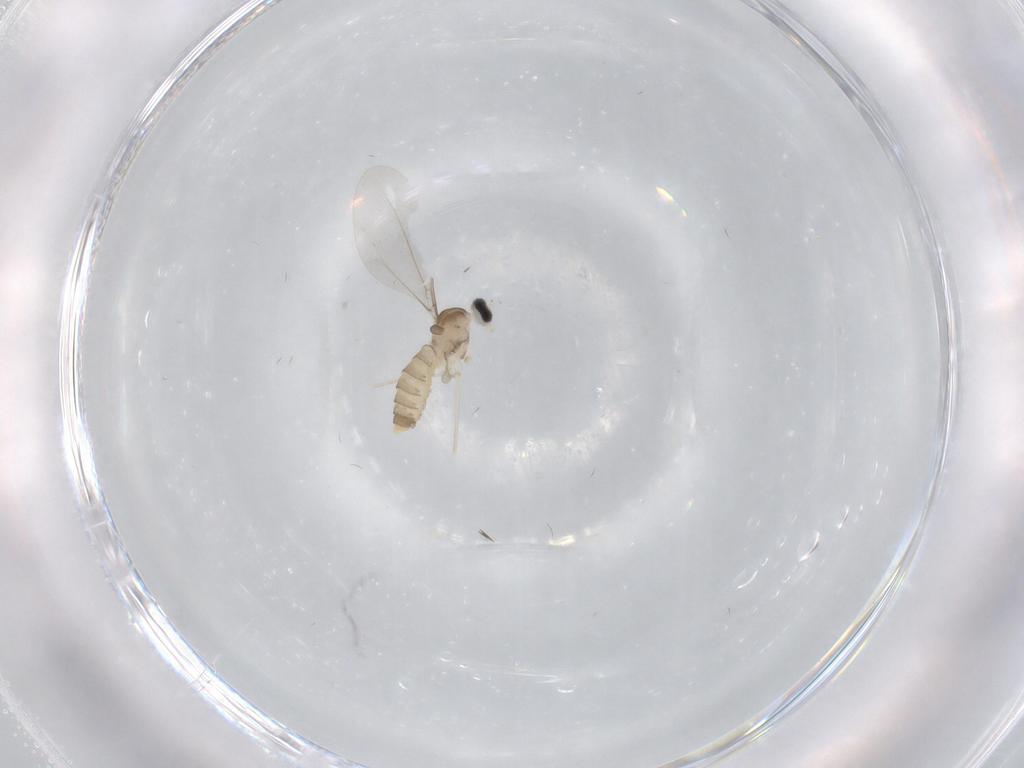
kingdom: Animalia
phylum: Arthropoda
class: Insecta
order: Diptera
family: Cecidomyiidae
